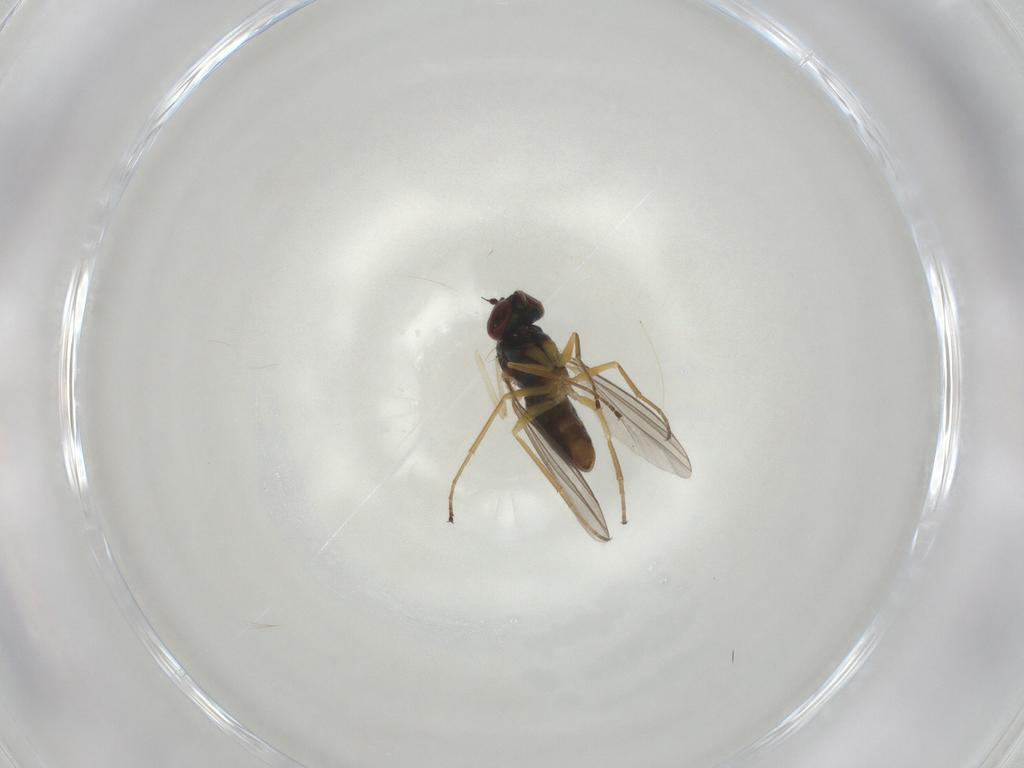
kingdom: Animalia
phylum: Arthropoda
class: Insecta
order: Diptera
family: Dolichopodidae
